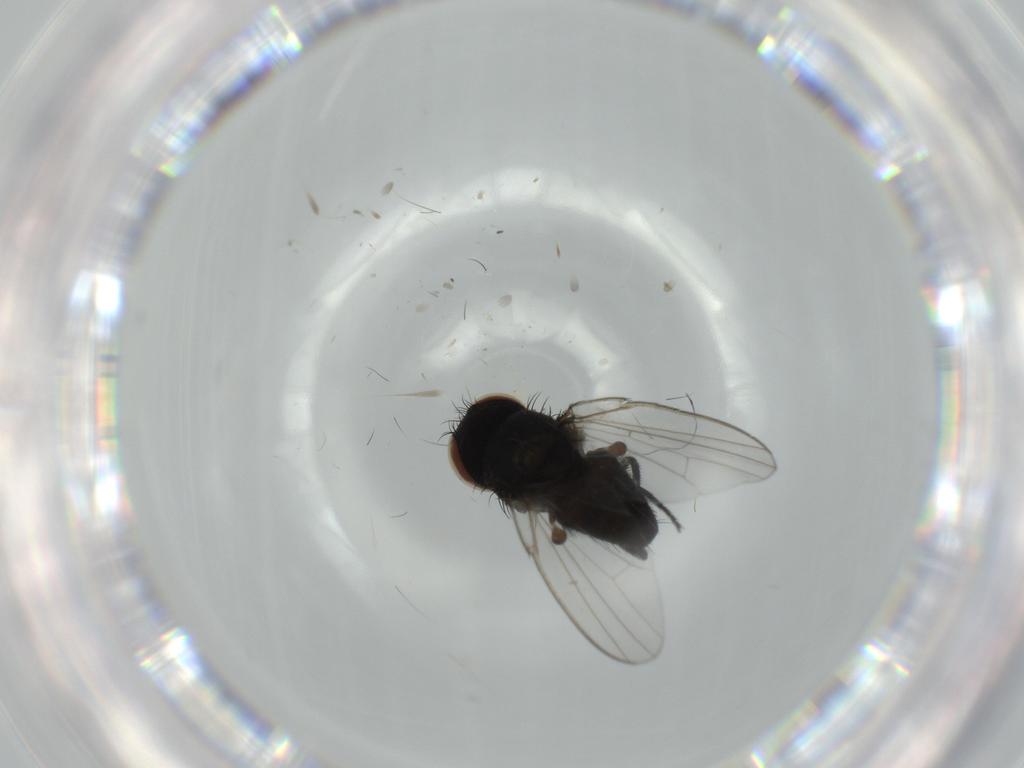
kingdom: Animalia
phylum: Arthropoda
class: Insecta
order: Diptera
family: Milichiidae
